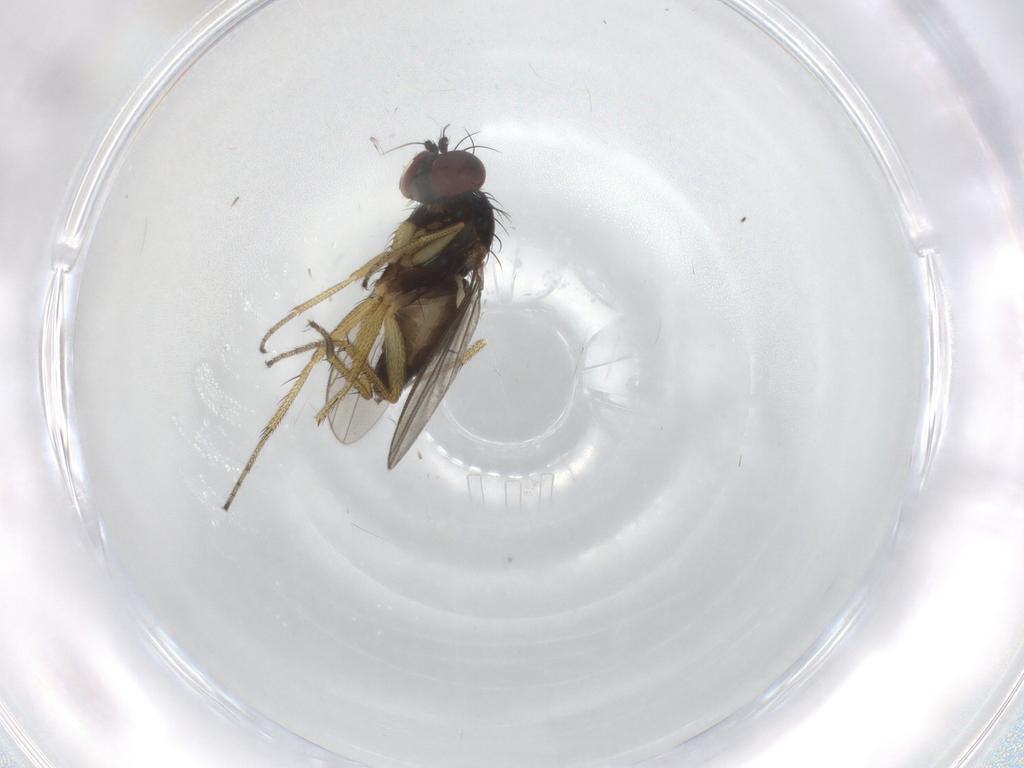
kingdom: Animalia
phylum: Arthropoda
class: Insecta
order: Diptera
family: Dolichopodidae
